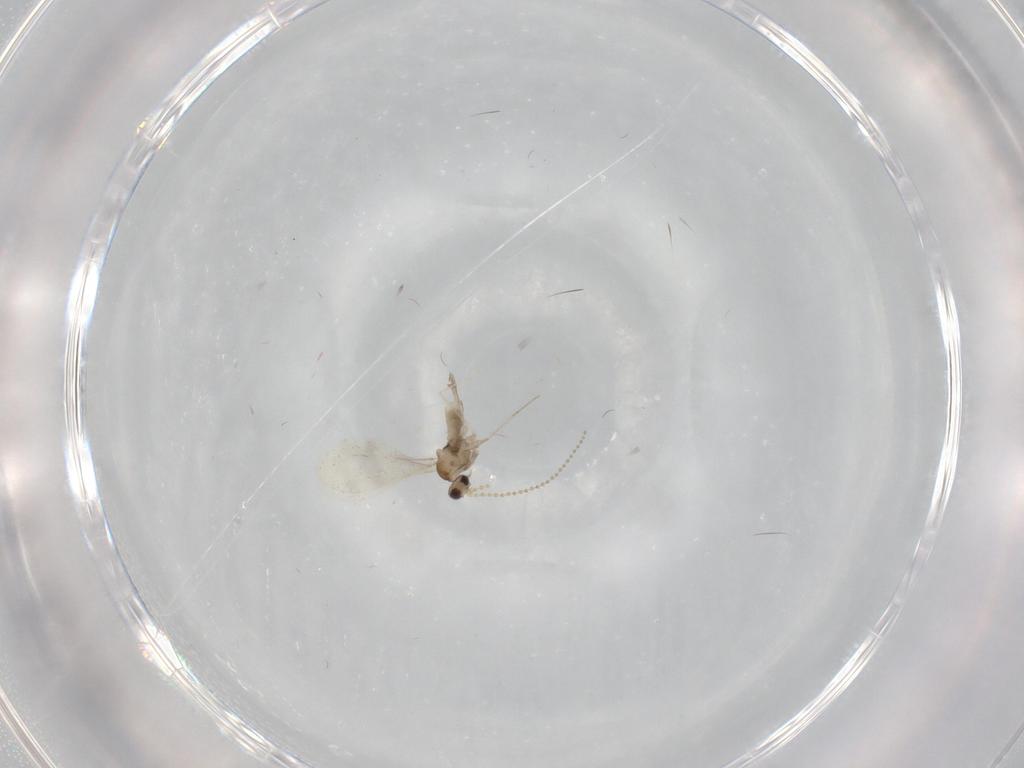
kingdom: Animalia
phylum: Arthropoda
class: Insecta
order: Diptera
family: Cecidomyiidae
